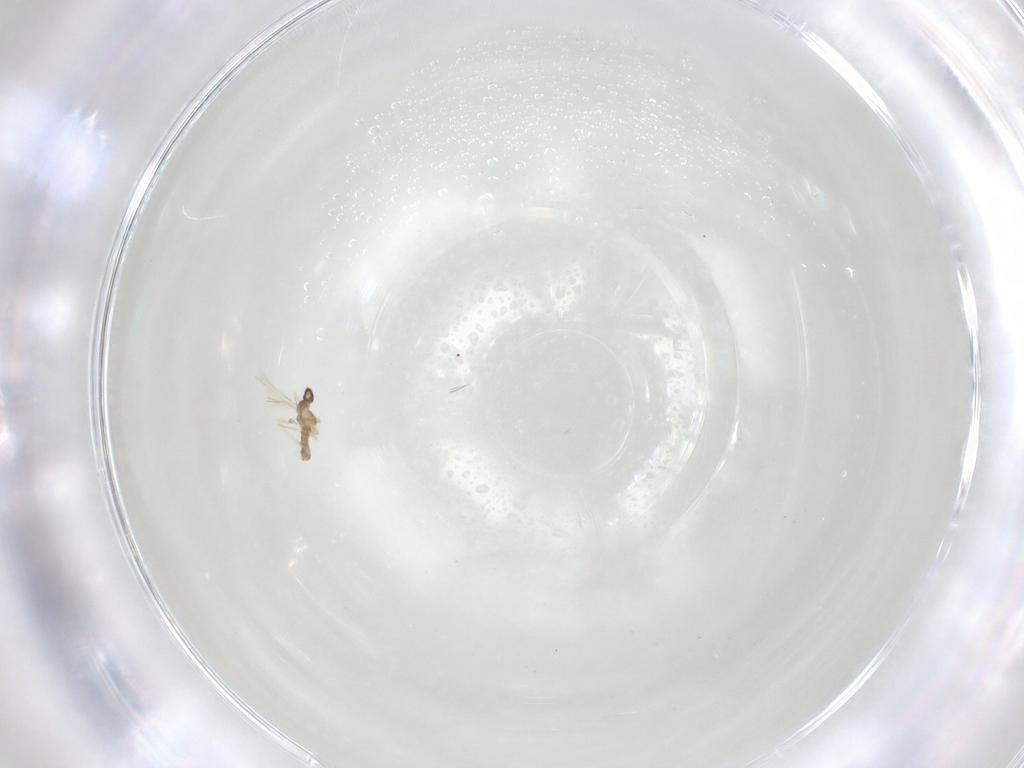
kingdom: Animalia
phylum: Arthropoda
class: Insecta
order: Diptera
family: Cecidomyiidae
